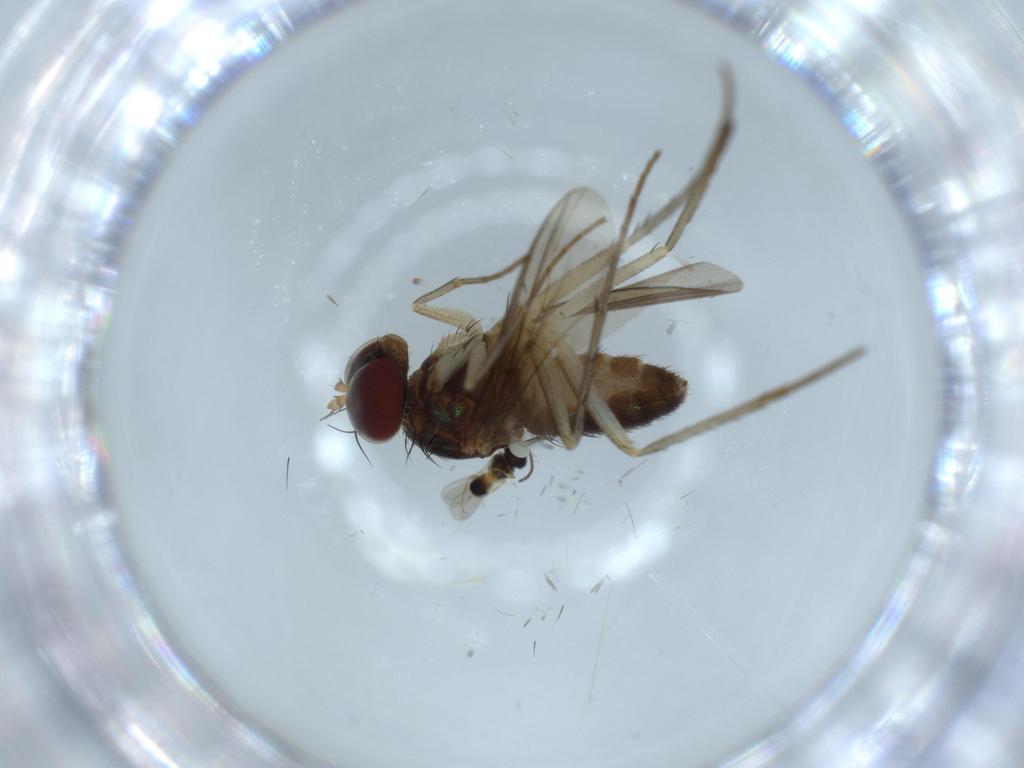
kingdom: Animalia
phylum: Arthropoda
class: Insecta
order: Diptera
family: Dolichopodidae
